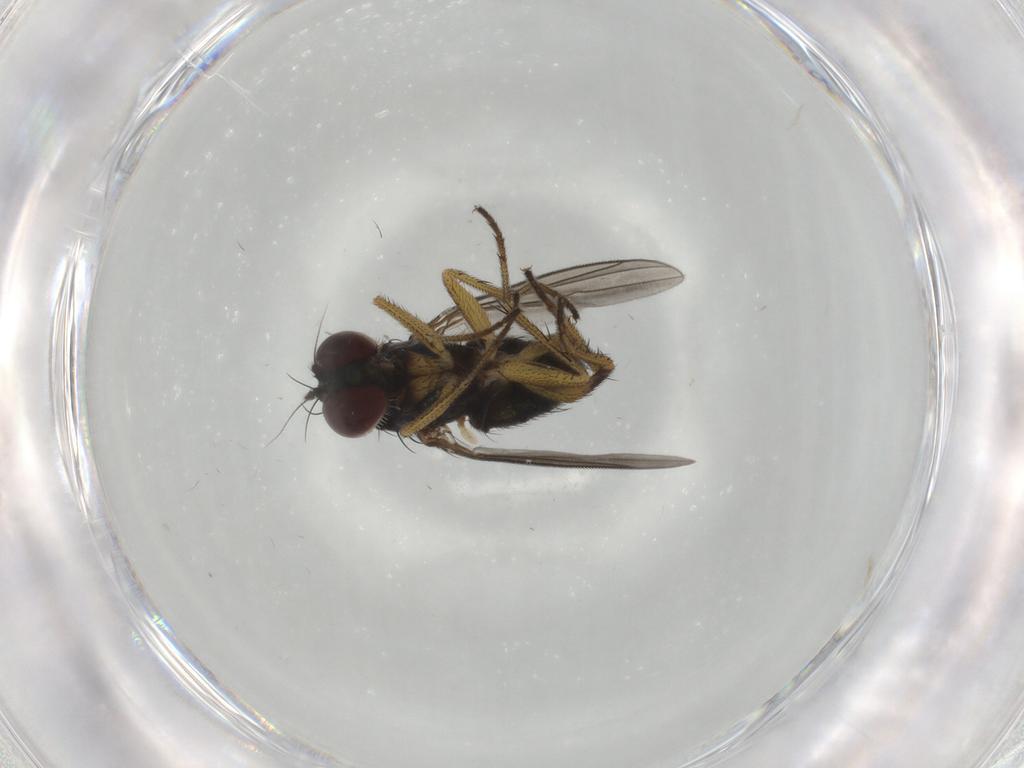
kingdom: Animalia
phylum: Arthropoda
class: Insecta
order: Diptera
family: Dolichopodidae
